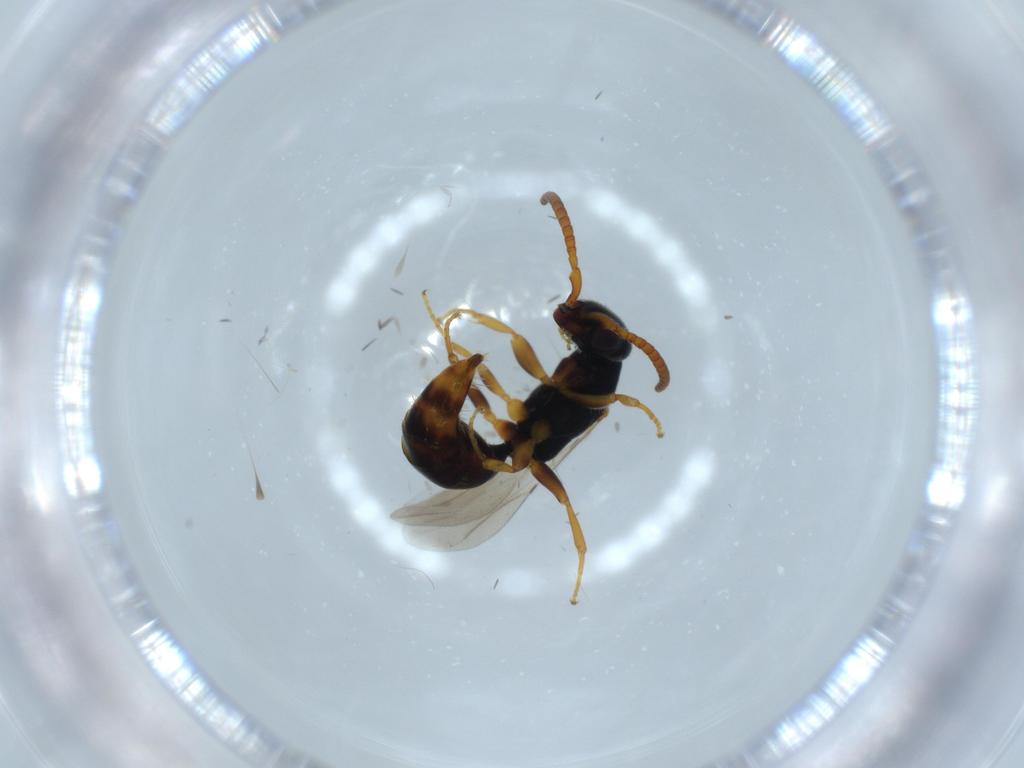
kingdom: Animalia
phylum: Arthropoda
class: Insecta
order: Hymenoptera
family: Bethylidae
